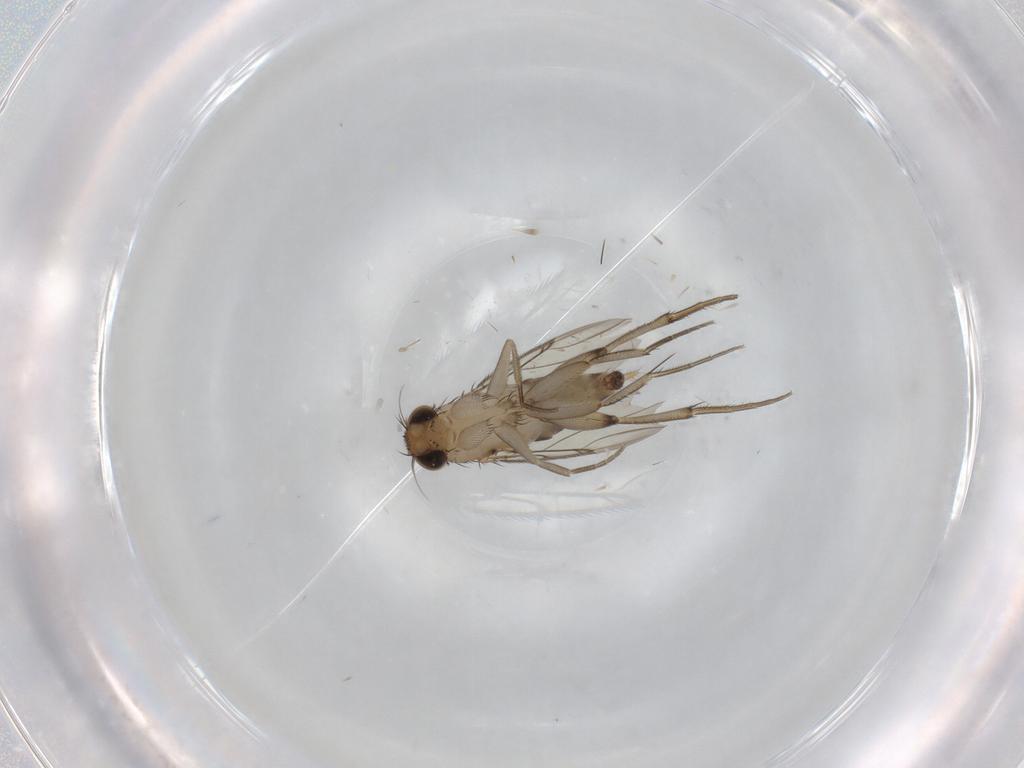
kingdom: Animalia
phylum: Arthropoda
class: Insecta
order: Diptera
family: Phoridae
